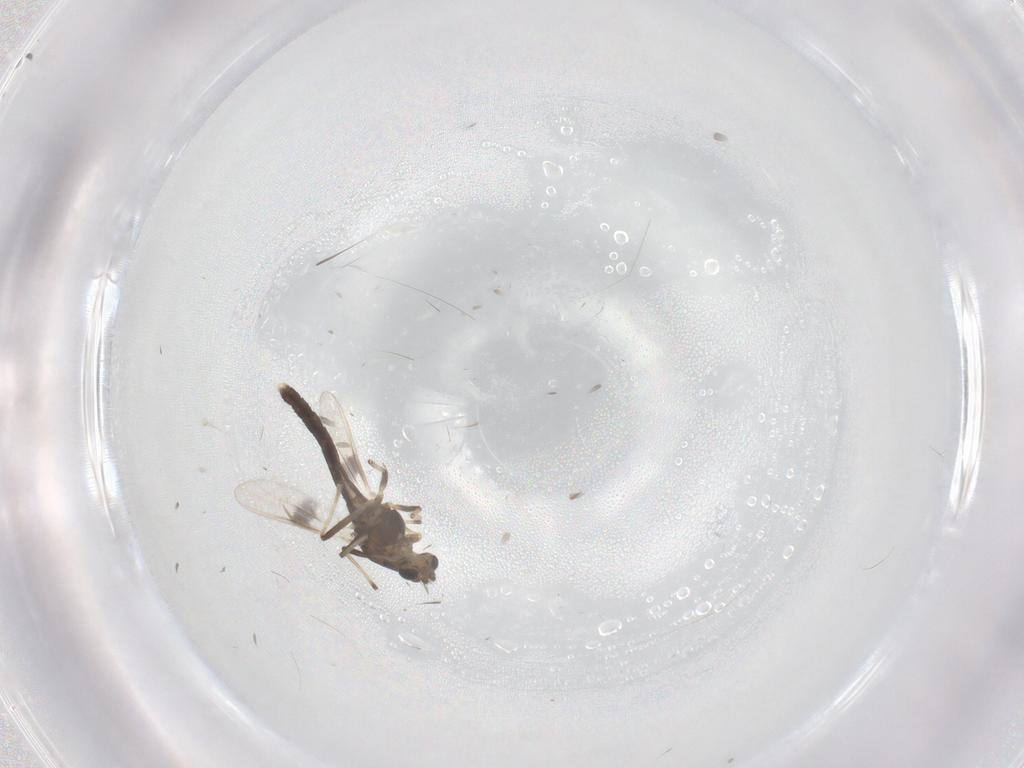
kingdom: Animalia
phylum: Arthropoda
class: Insecta
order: Diptera
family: Chironomidae
